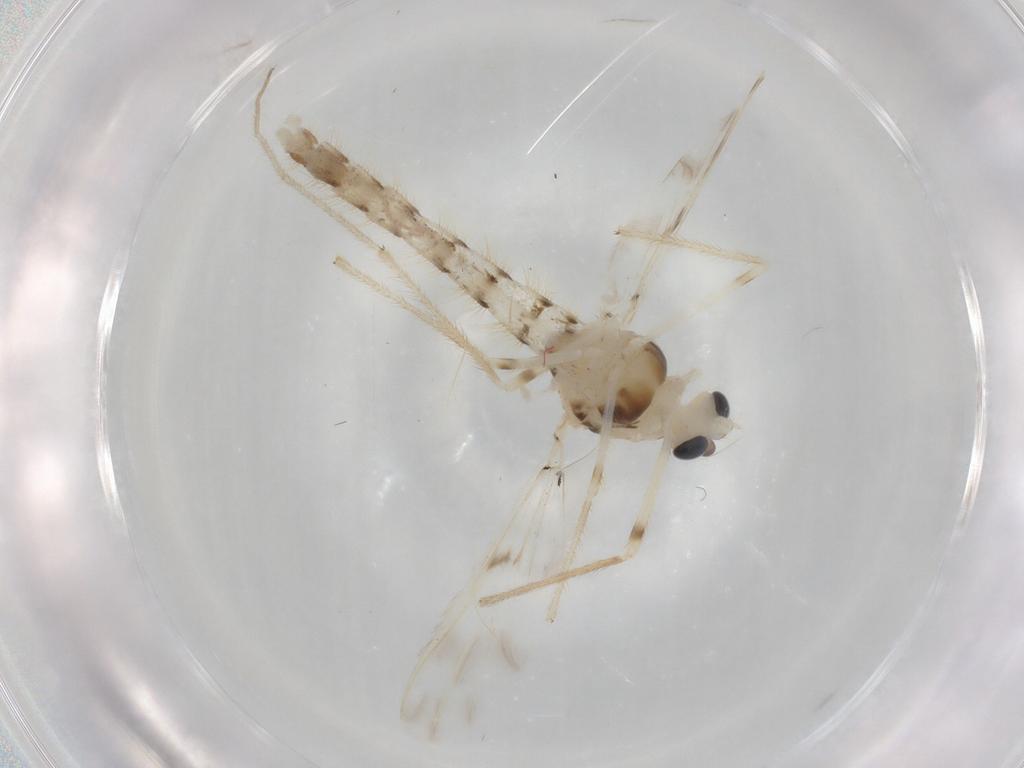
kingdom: Animalia
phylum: Arthropoda
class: Insecta
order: Diptera
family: Chironomidae
